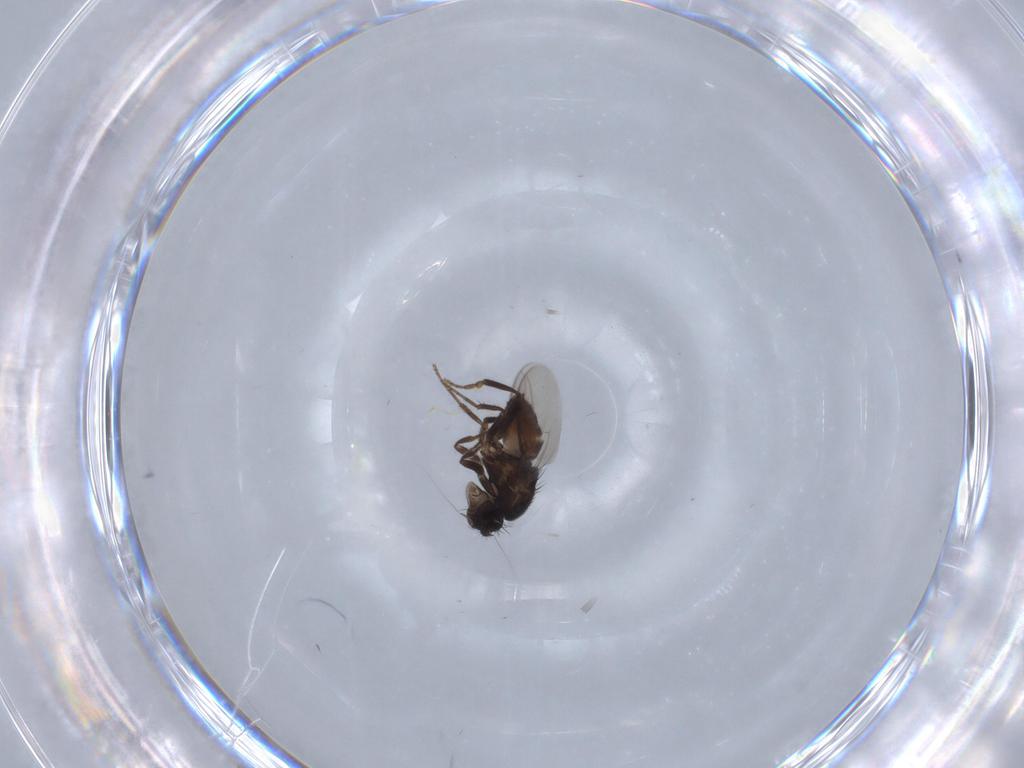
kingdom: Animalia
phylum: Arthropoda
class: Insecta
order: Diptera
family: Sphaeroceridae
